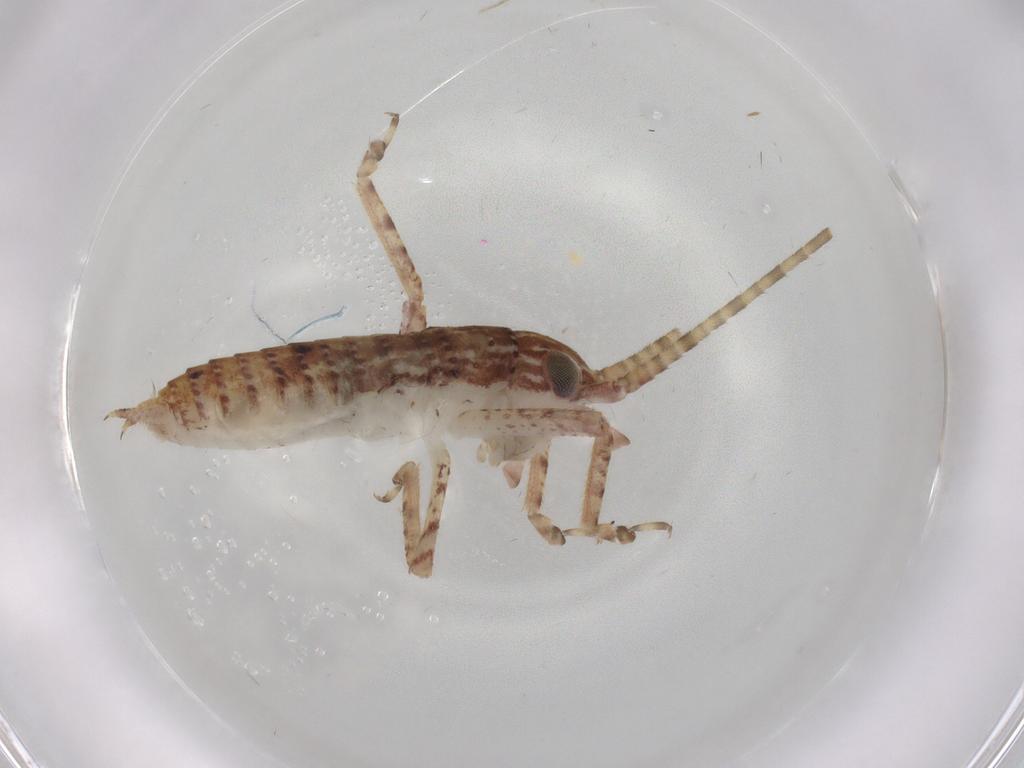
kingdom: Animalia
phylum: Arthropoda
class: Insecta
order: Orthoptera
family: Gryllidae
